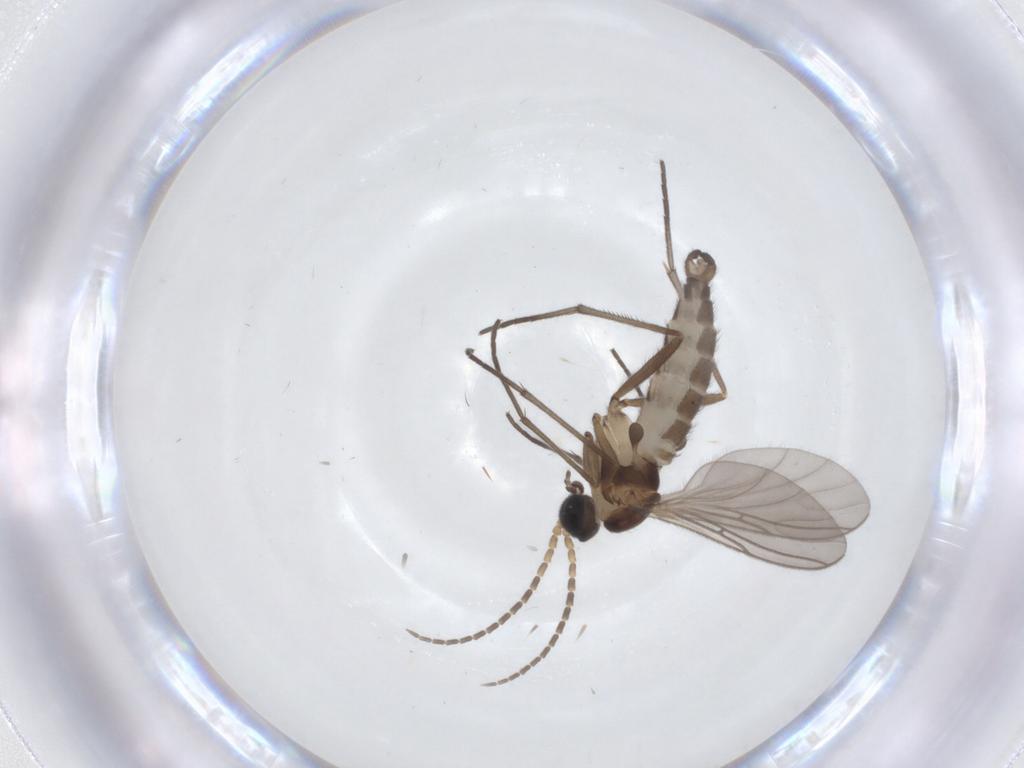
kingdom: Animalia
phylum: Arthropoda
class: Insecta
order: Diptera
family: Sciaridae
